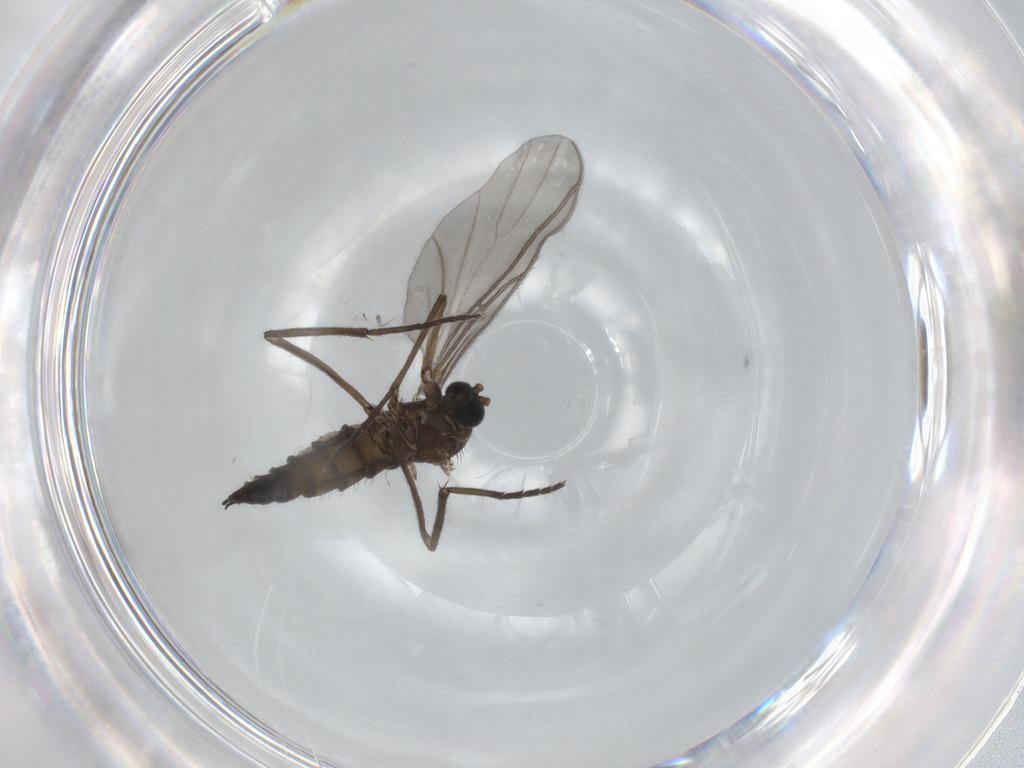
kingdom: Animalia
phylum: Arthropoda
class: Insecta
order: Diptera
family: Sciaridae
